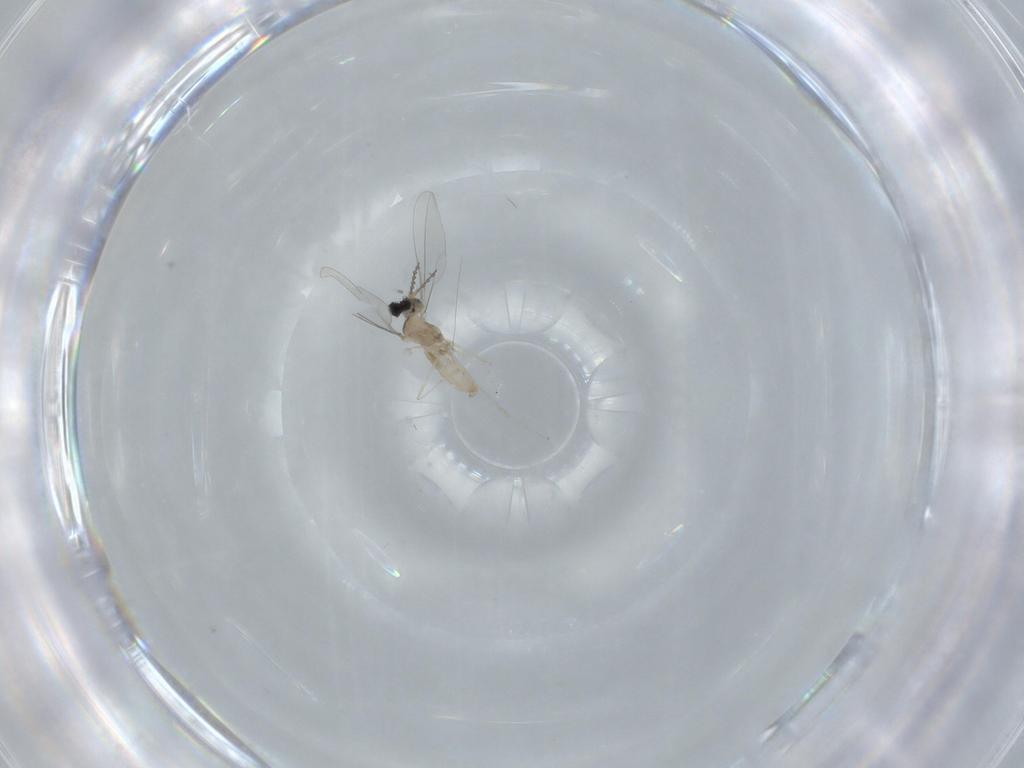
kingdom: Animalia
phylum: Arthropoda
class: Insecta
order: Diptera
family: Cecidomyiidae
